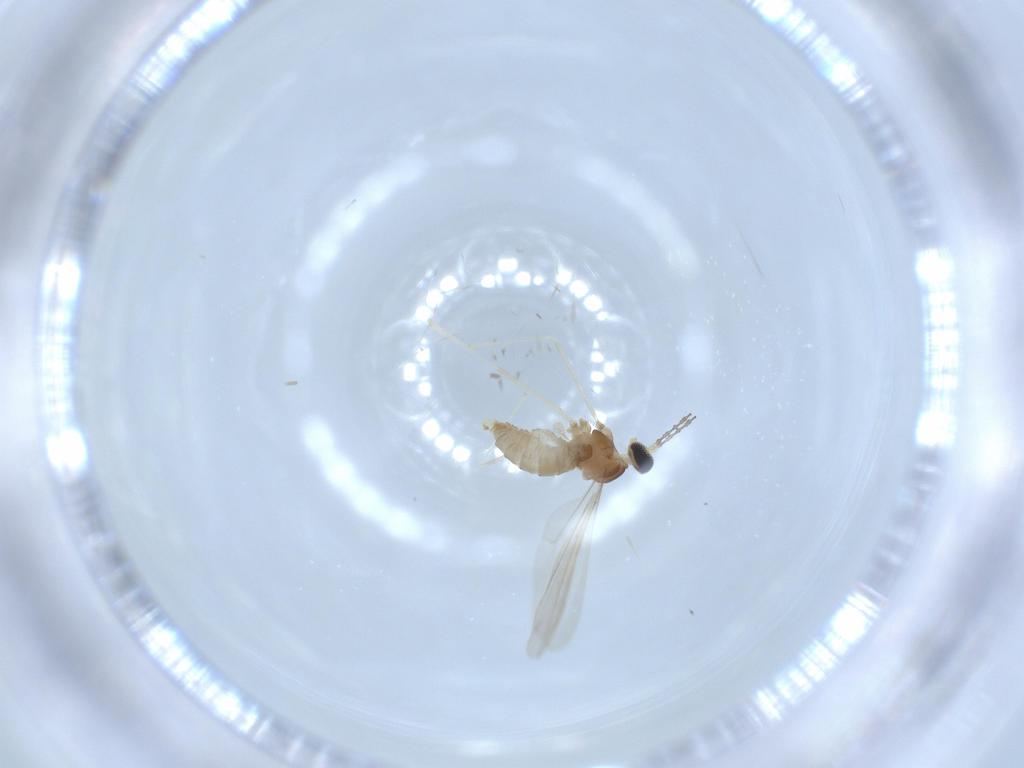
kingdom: Animalia
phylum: Arthropoda
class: Insecta
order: Diptera
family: Cecidomyiidae
